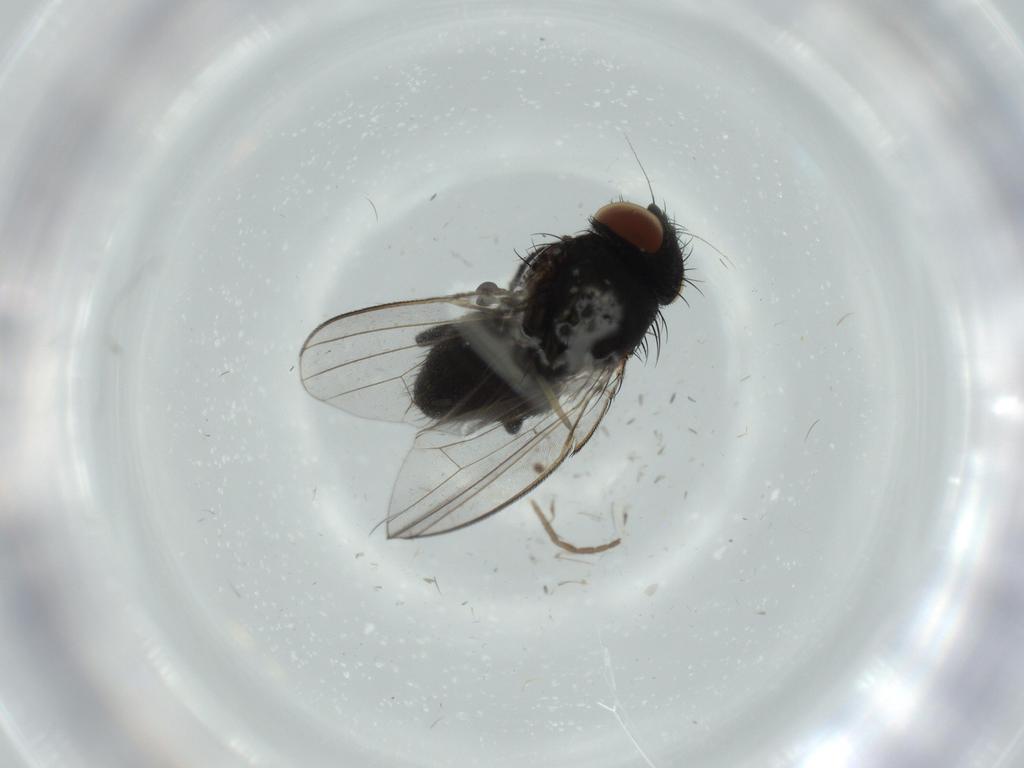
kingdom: Animalia
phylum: Arthropoda
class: Insecta
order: Diptera
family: Milichiidae
